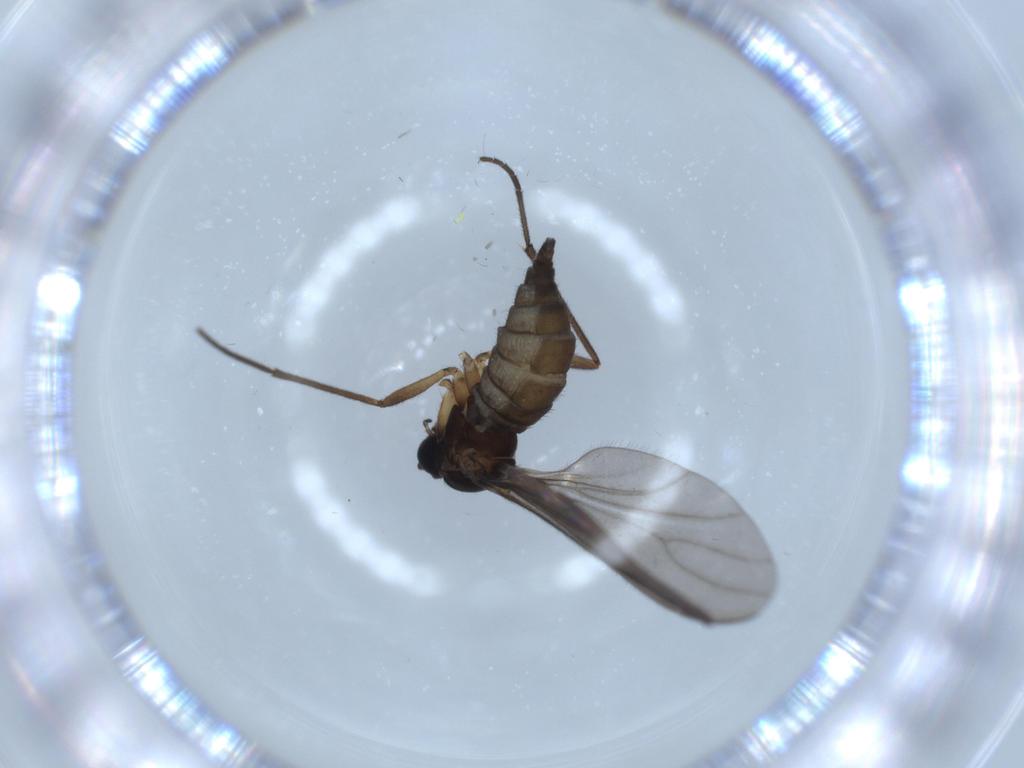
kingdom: Animalia
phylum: Arthropoda
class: Insecta
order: Diptera
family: Sciaridae
